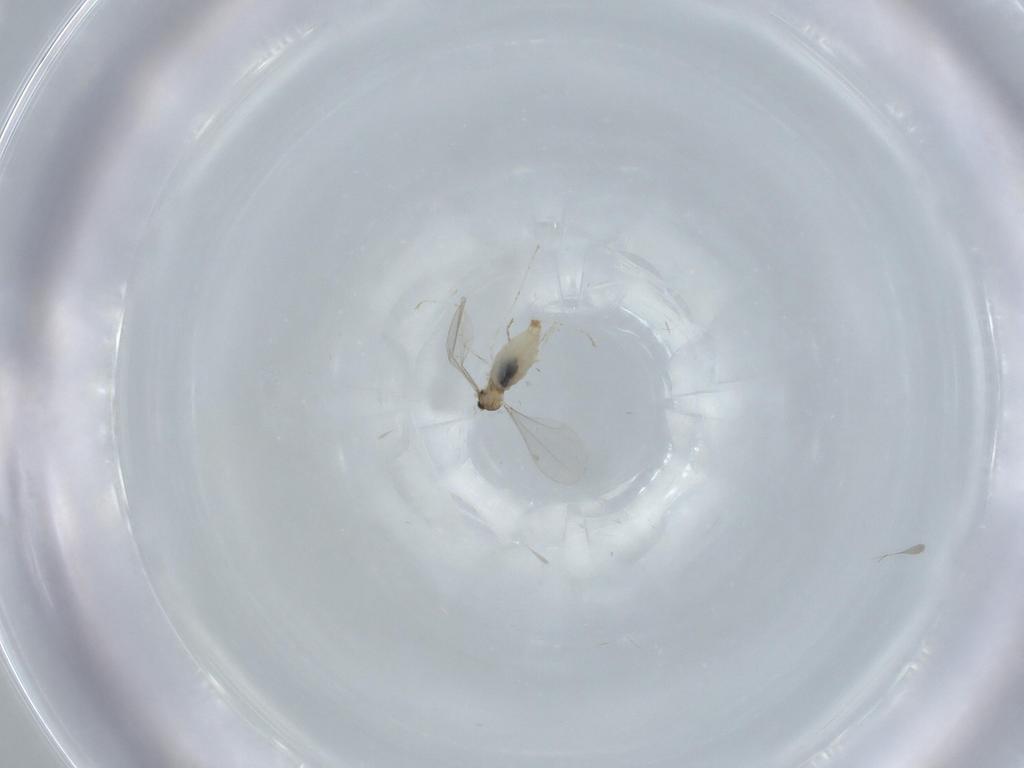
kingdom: Animalia
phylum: Arthropoda
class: Insecta
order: Diptera
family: Cecidomyiidae
